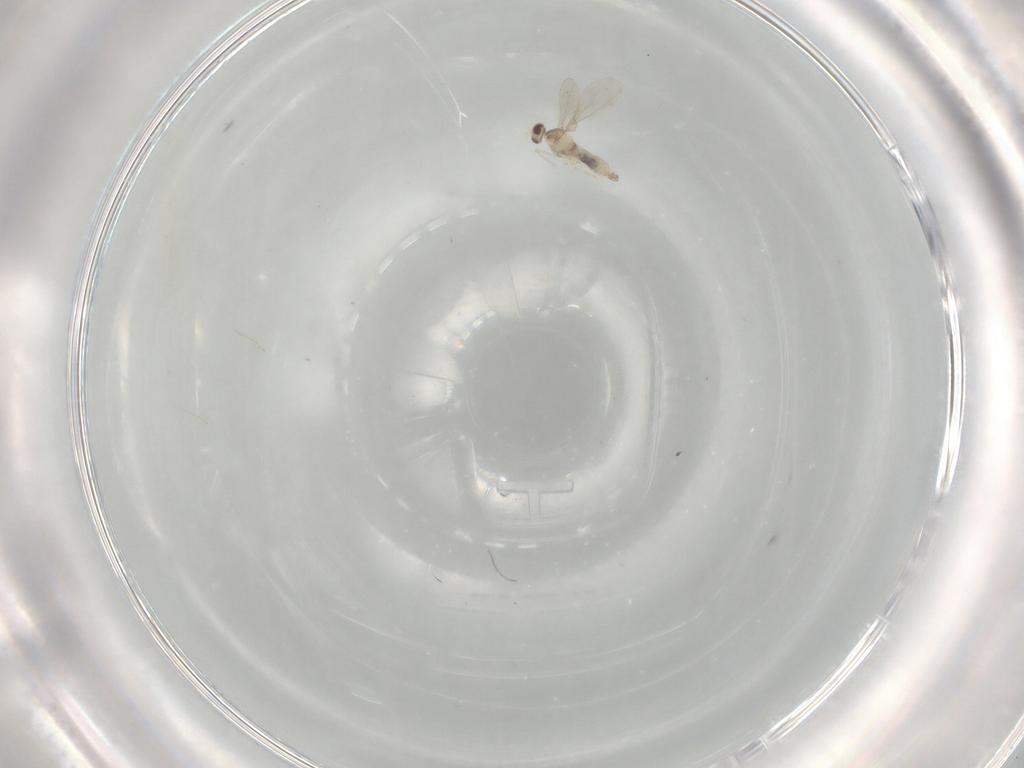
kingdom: Animalia
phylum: Arthropoda
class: Insecta
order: Diptera
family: Cecidomyiidae
